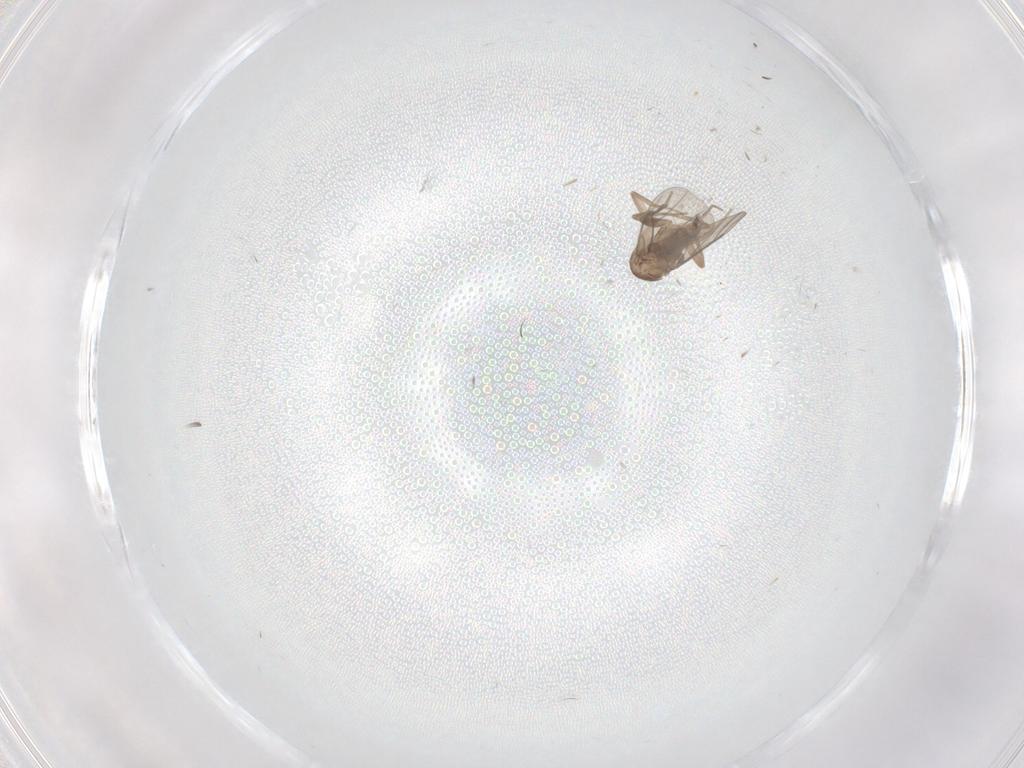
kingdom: Animalia
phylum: Arthropoda
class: Insecta
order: Diptera
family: Chironomidae
